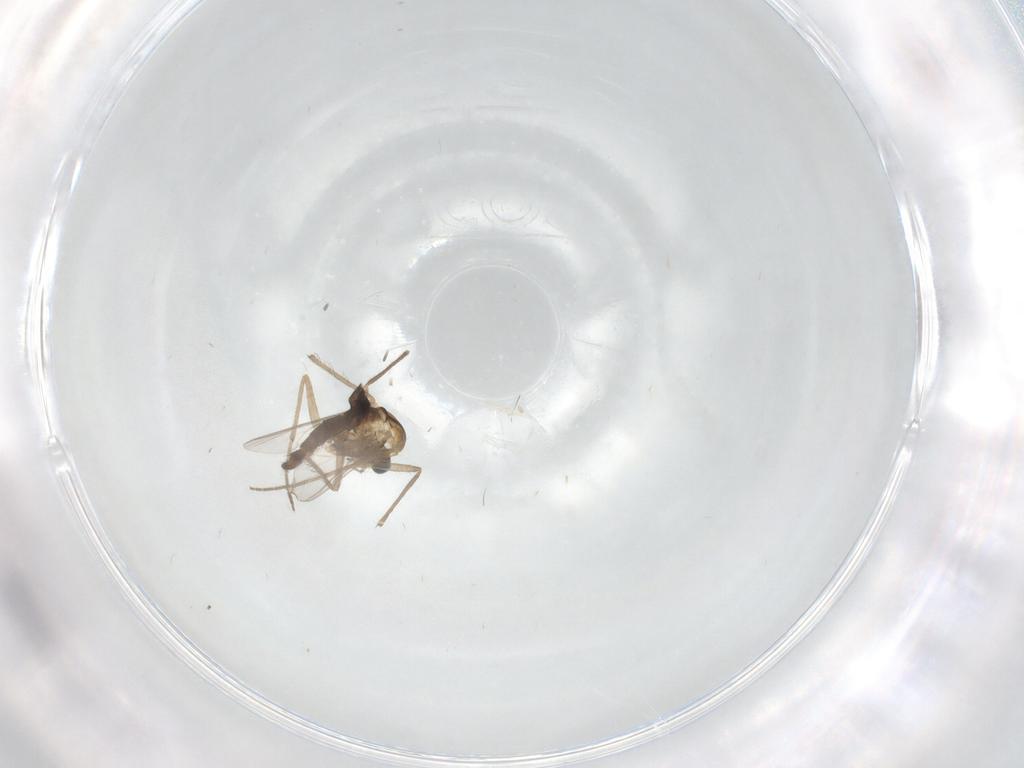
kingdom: Animalia
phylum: Arthropoda
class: Insecta
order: Diptera
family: Chironomidae
